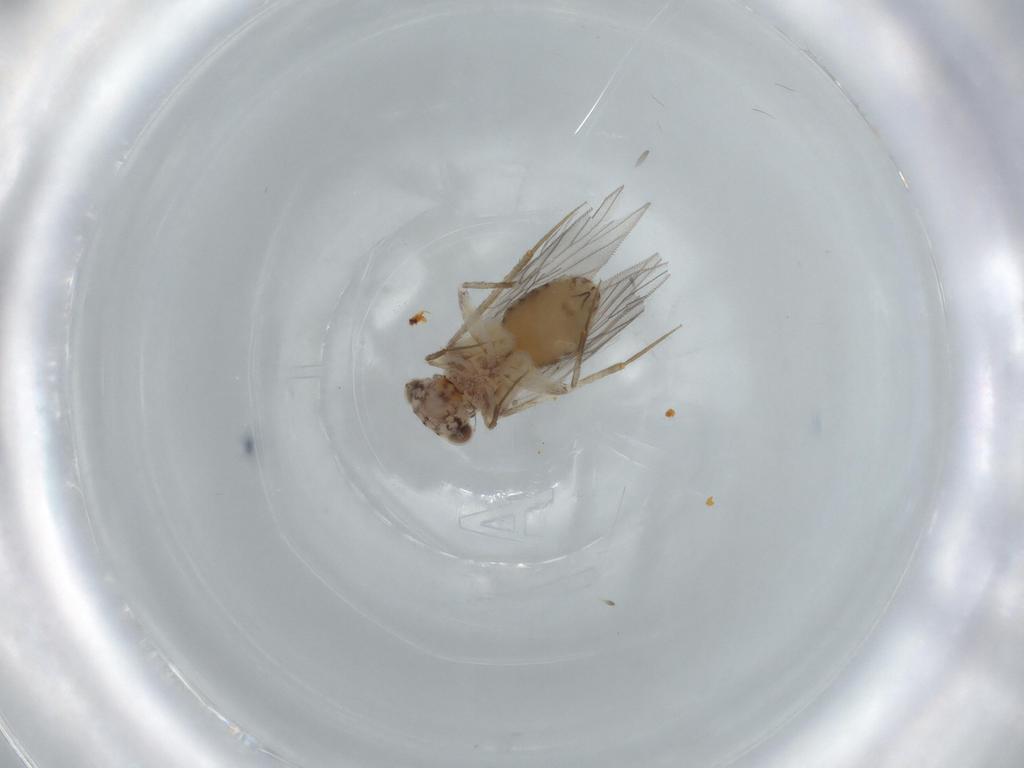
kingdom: Animalia
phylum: Arthropoda
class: Insecta
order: Psocodea
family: Lepidopsocidae
